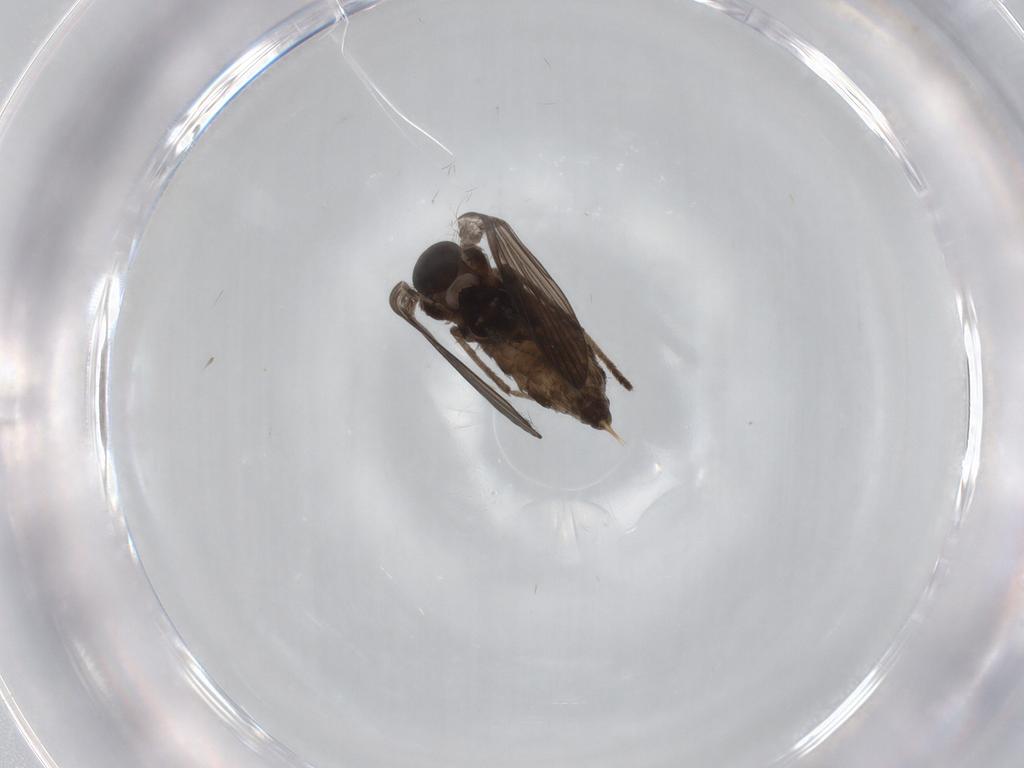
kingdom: Animalia
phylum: Arthropoda
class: Insecta
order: Diptera
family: Psychodidae
